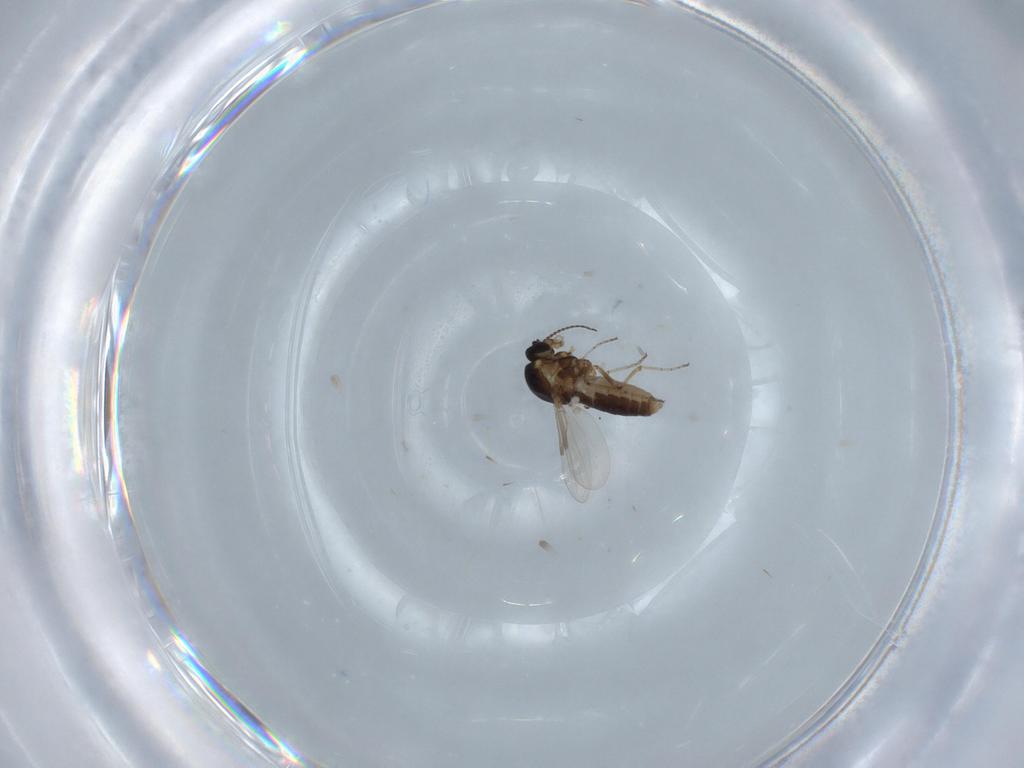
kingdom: Animalia
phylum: Arthropoda
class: Insecta
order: Diptera
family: Ceratopogonidae
